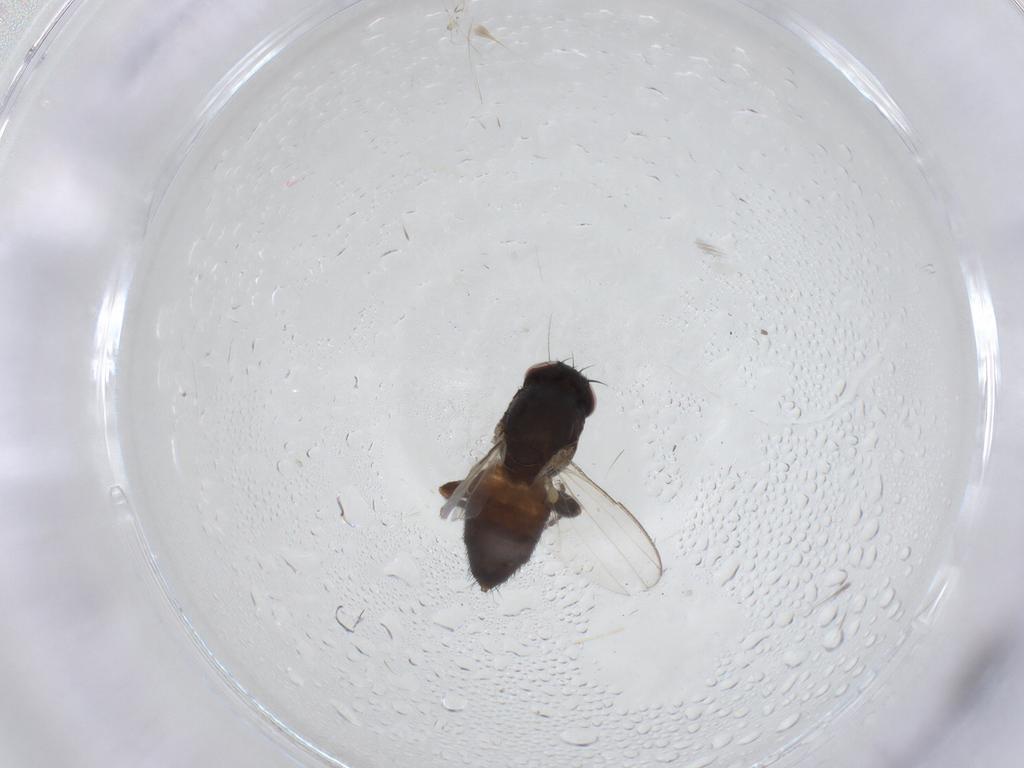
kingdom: Animalia
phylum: Arthropoda
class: Insecta
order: Diptera
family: Milichiidae
